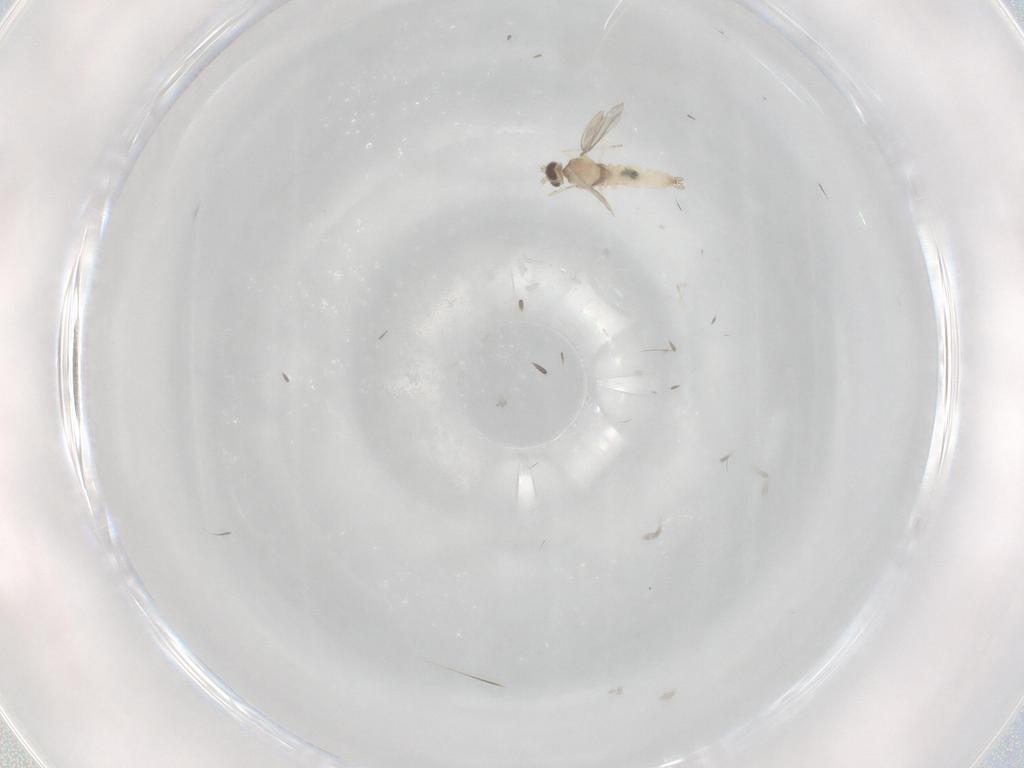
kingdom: Animalia
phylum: Arthropoda
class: Insecta
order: Diptera
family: Cecidomyiidae
